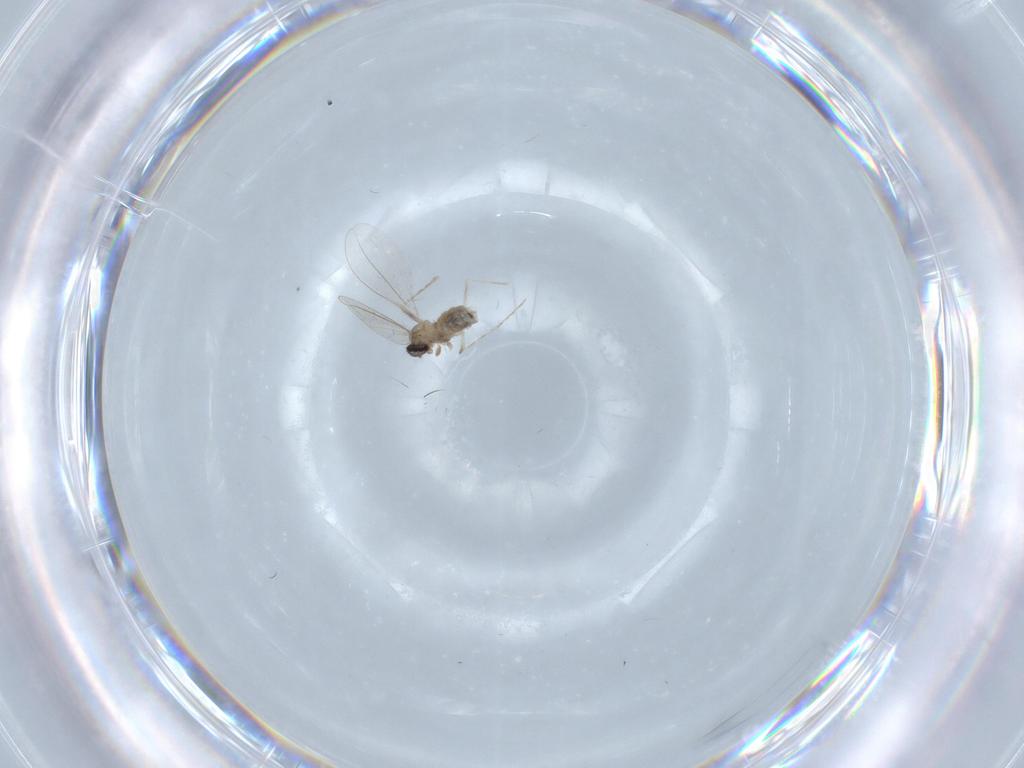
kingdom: Animalia
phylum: Arthropoda
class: Insecta
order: Diptera
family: Cecidomyiidae
